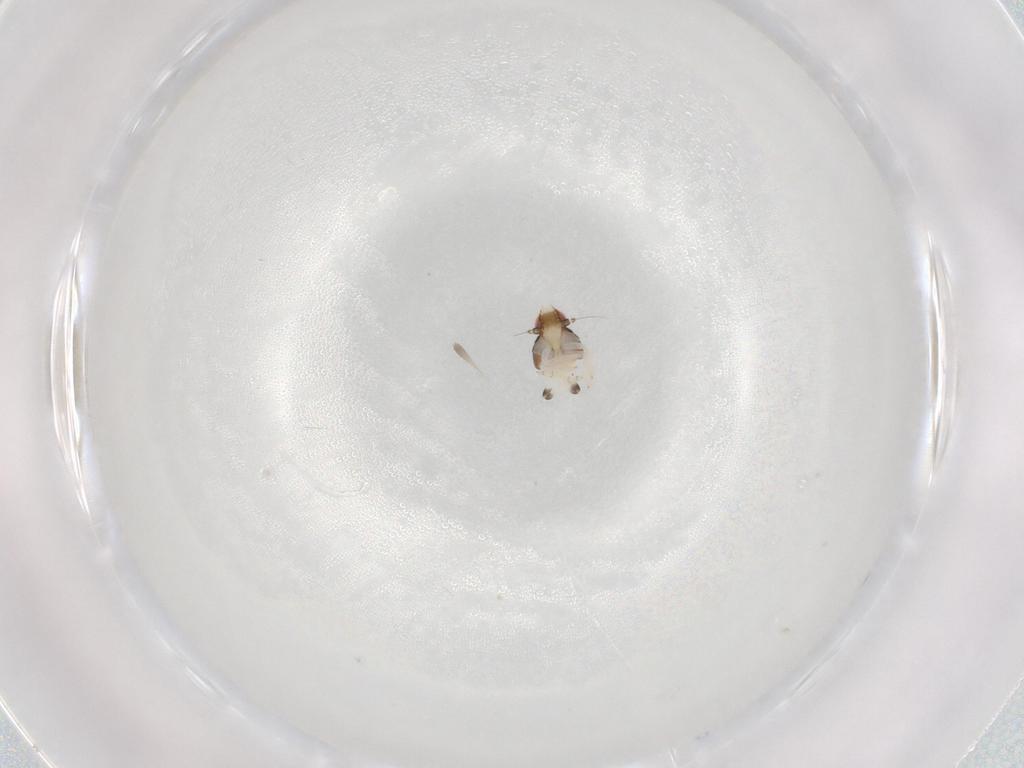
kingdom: Animalia
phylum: Arthropoda
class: Insecta
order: Hemiptera
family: Nogodinidae
